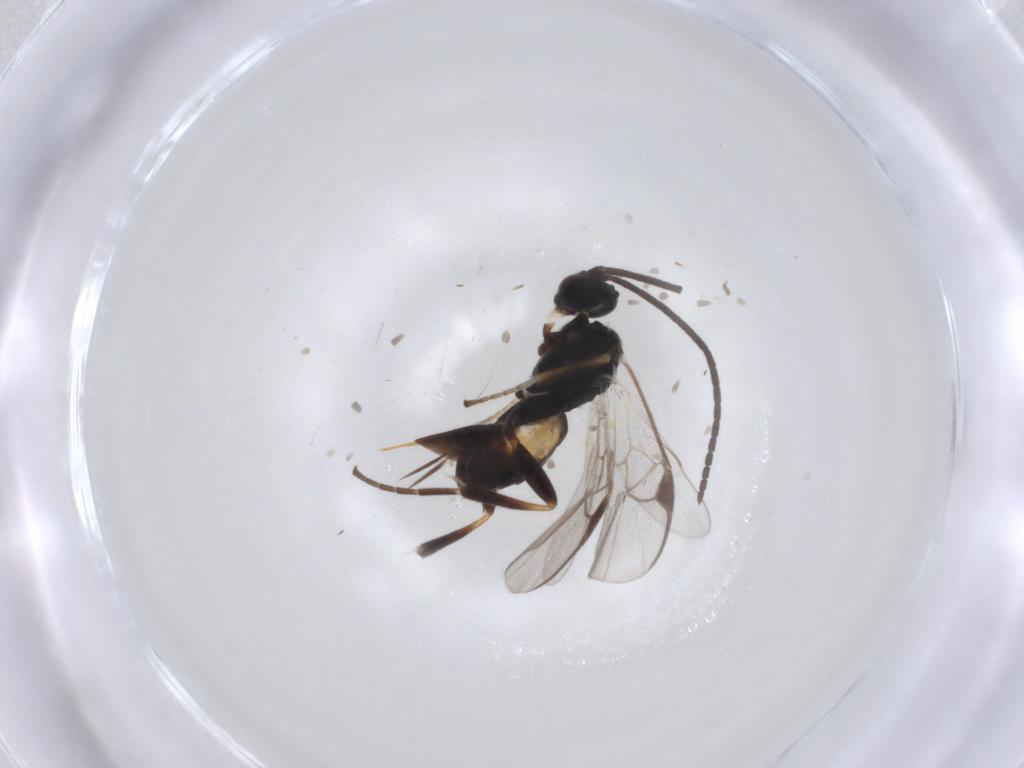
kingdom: Animalia
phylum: Arthropoda
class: Insecta
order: Hymenoptera
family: Braconidae
